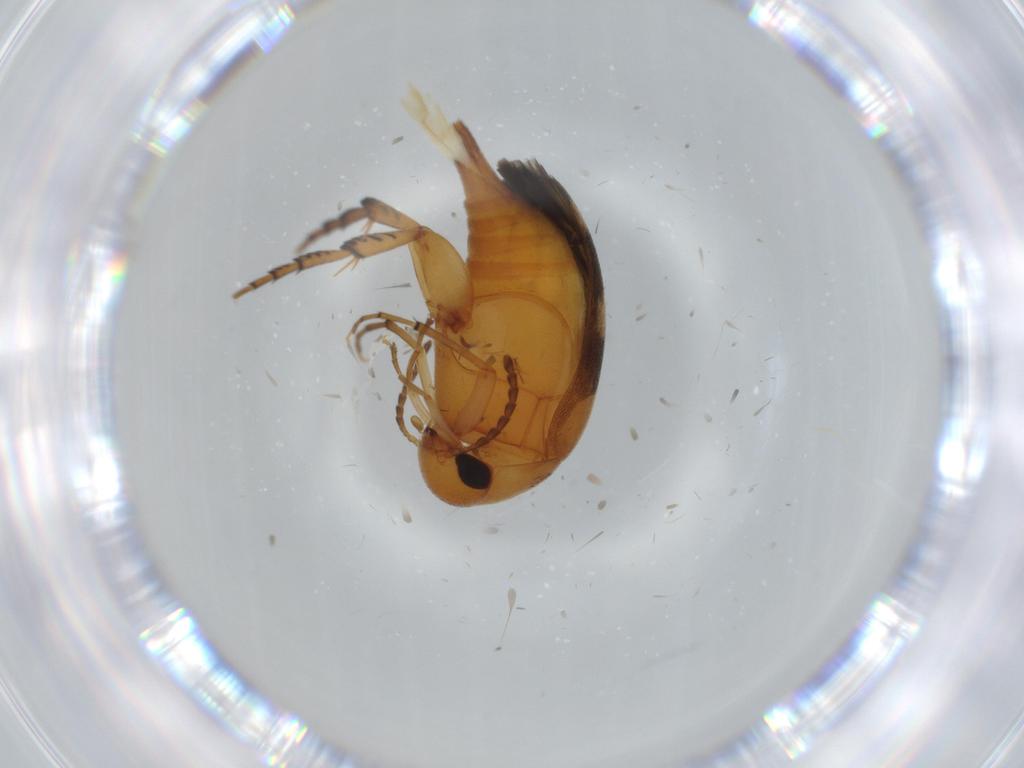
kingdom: Animalia
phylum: Arthropoda
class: Insecta
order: Coleoptera
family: Mordellidae
